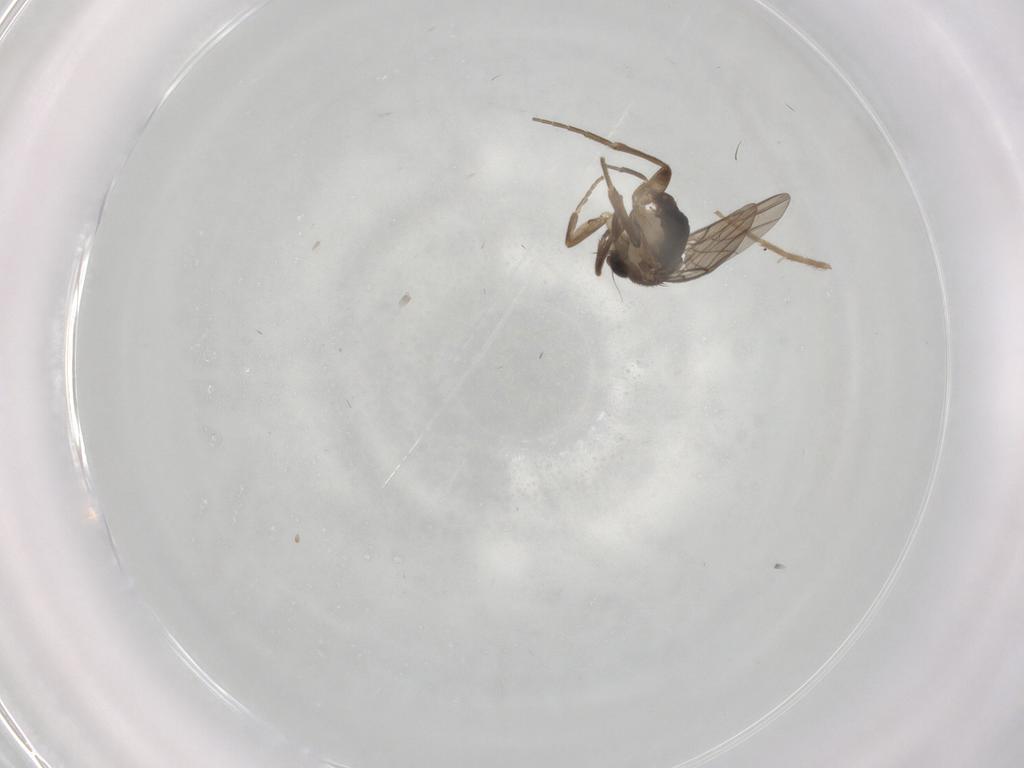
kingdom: Animalia
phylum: Arthropoda
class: Insecta
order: Diptera
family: Phoridae
